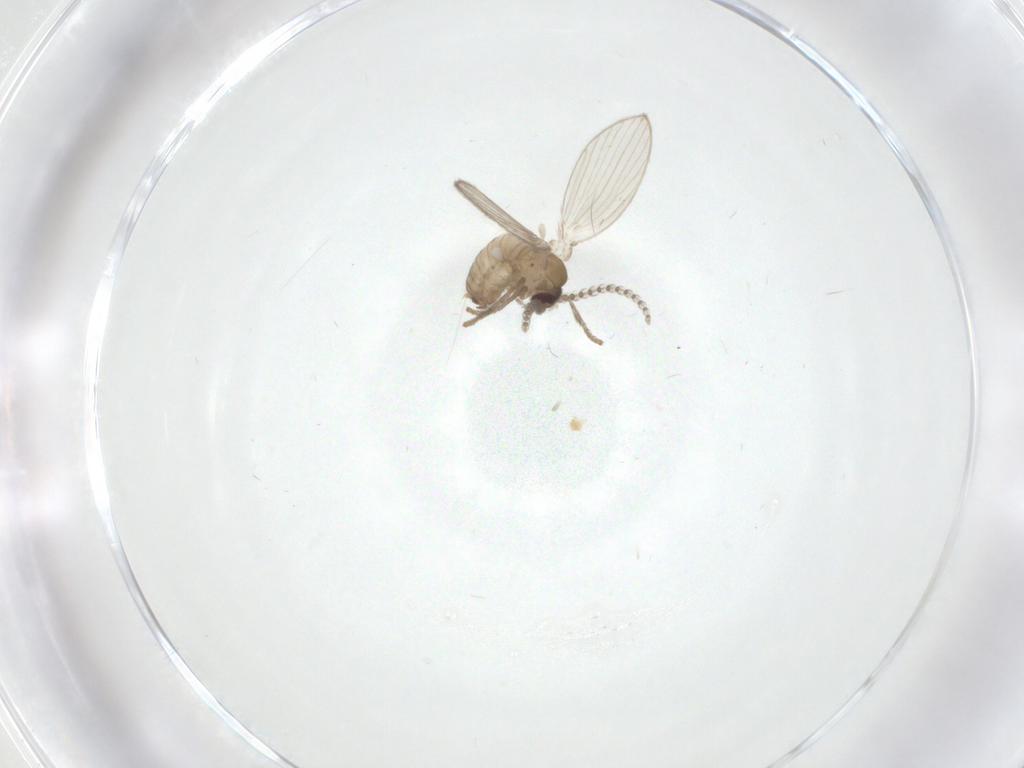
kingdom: Animalia
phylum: Arthropoda
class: Insecta
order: Diptera
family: Psychodidae
